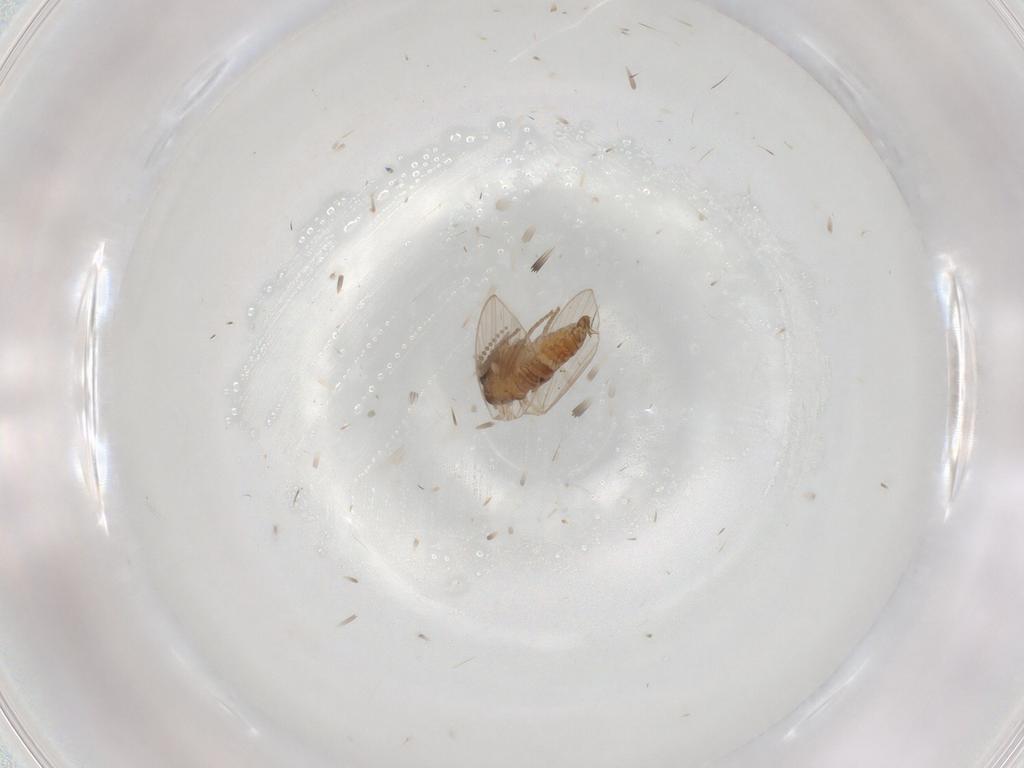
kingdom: Animalia
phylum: Arthropoda
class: Insecta
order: Diptera
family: Psychodidae
